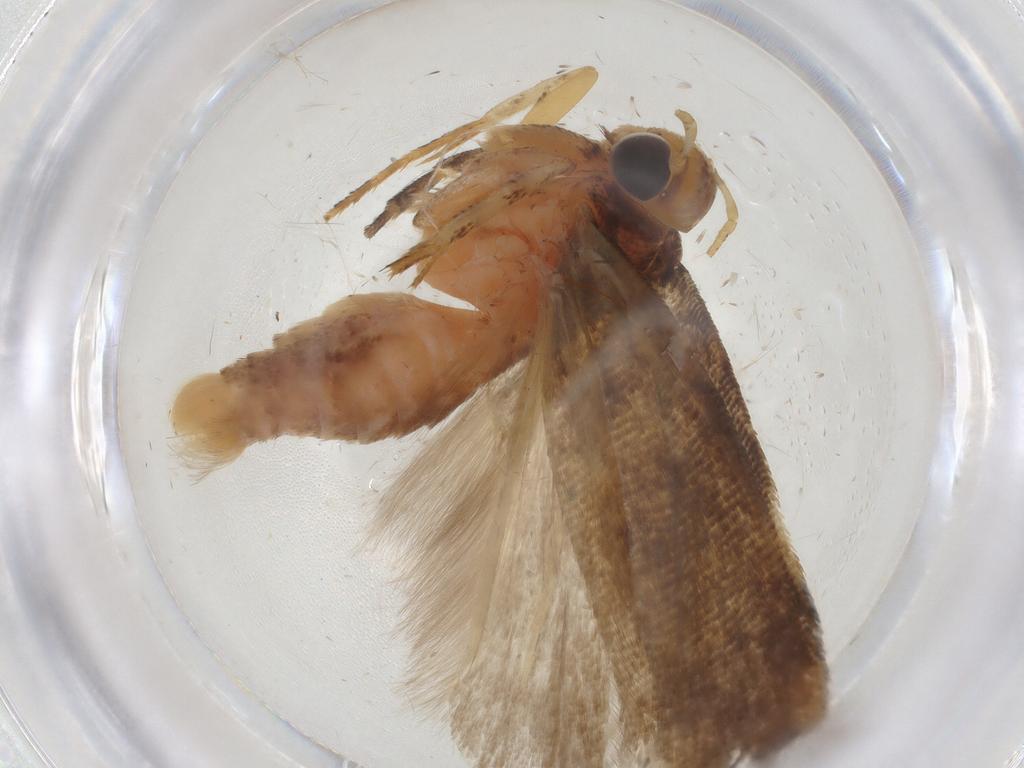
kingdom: Animalia
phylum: Arthropoda
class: Insecta
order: Lepidoptera
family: Gelechiidae
